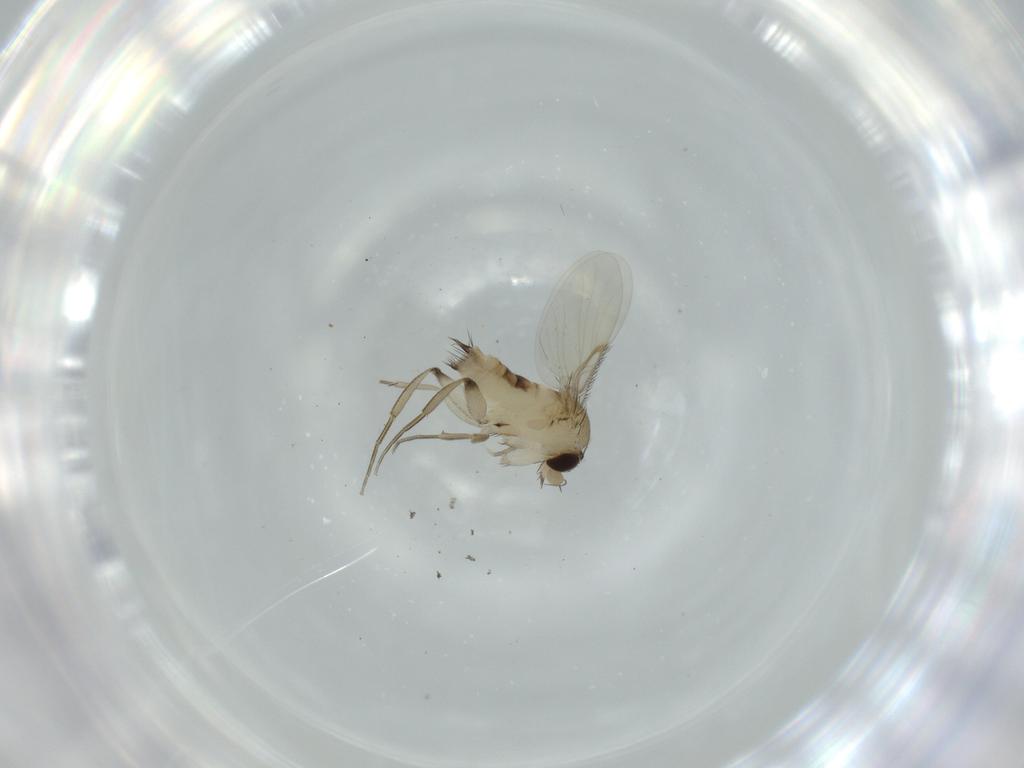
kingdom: Animalia
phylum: Arthropoda
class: Insecta
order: Diptera
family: Phoridae
